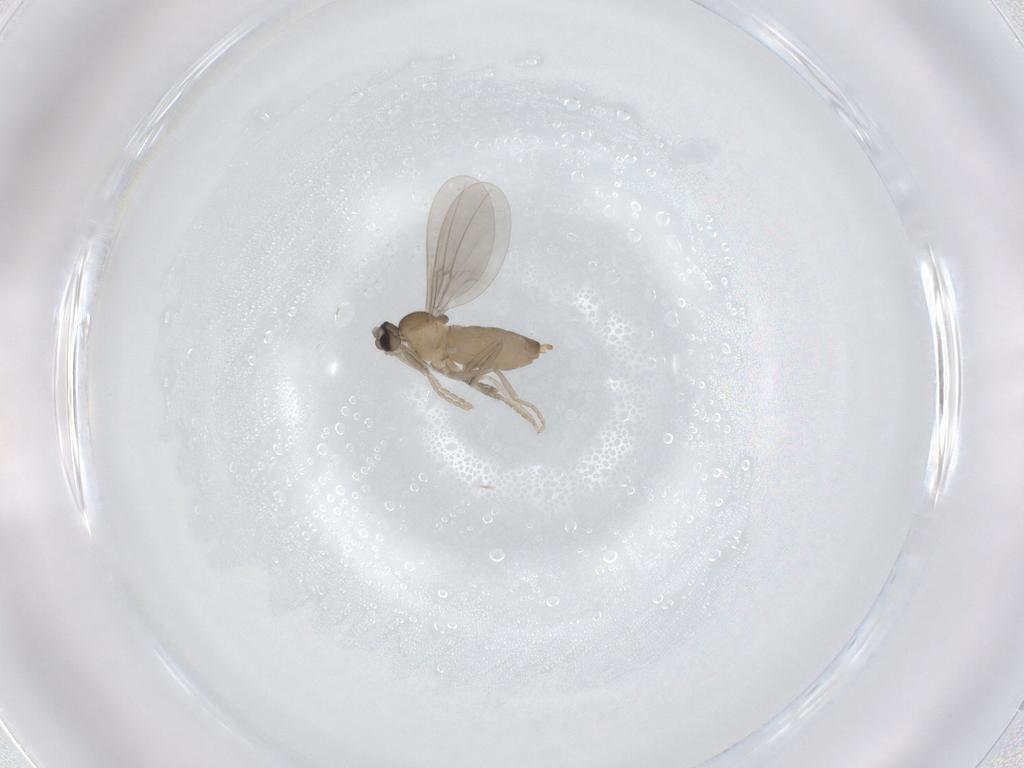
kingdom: Animalia
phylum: Arthropoda
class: Insecta
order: Diptera
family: Cecidomyiidae
